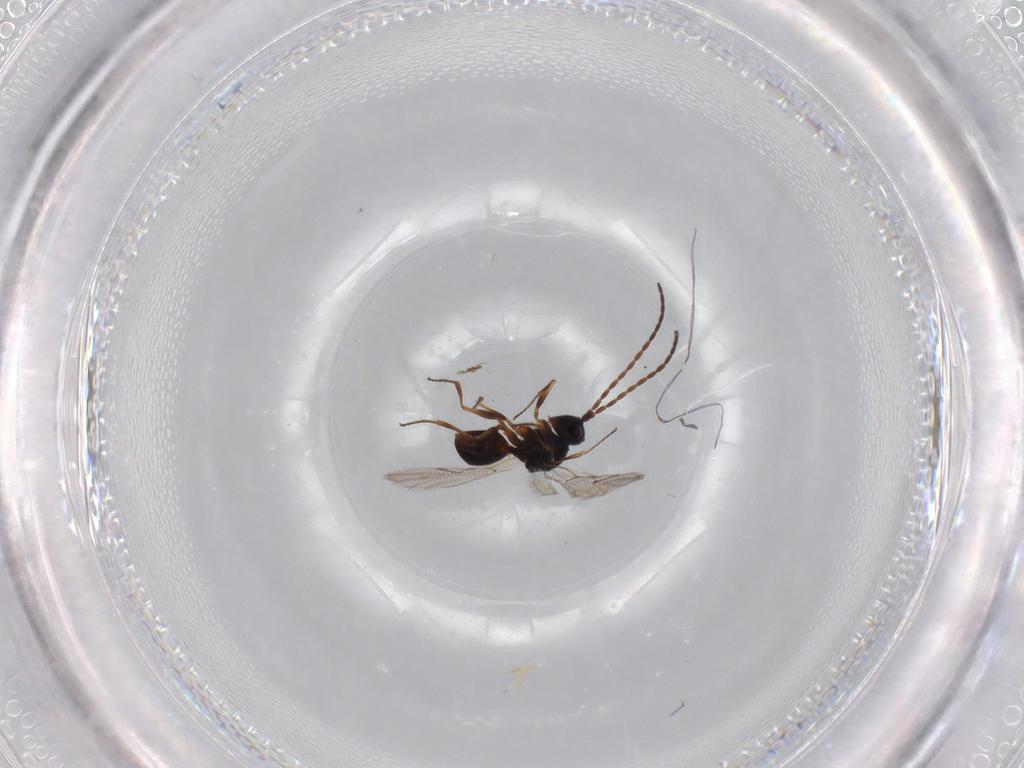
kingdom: Animalia
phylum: Arthropoda
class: Insecta
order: Hymenoptera
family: Figitidae
